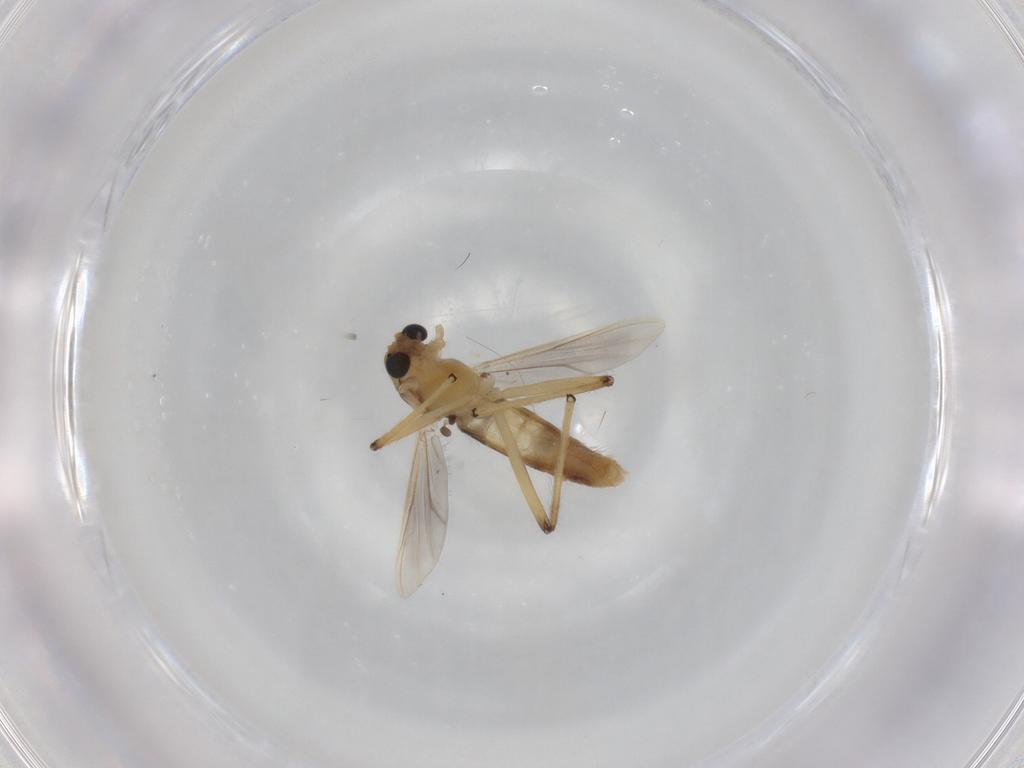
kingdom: Animalia
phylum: Arthropoda
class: Insecta
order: Diptera
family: Chironomidae
